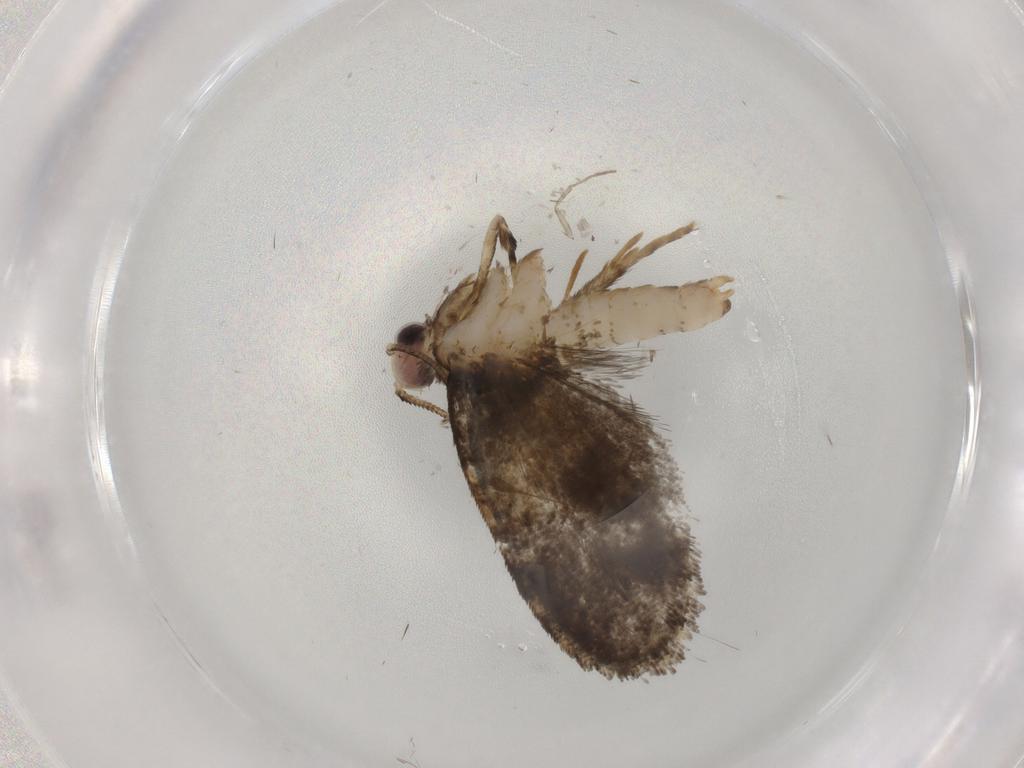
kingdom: Animalia
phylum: Arthropoda
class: Insecta
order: Lepidoptera
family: Psychidae
